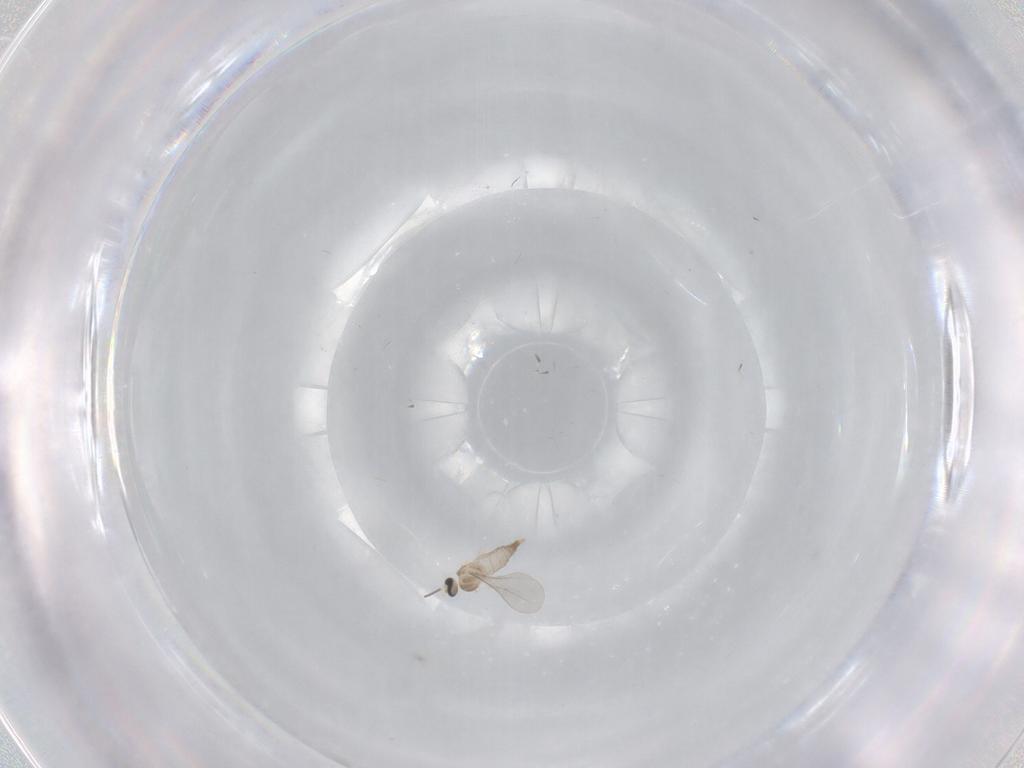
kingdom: Animalia
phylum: Arthropoda
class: Insecta
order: Diptera
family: Cecidomyiidae
